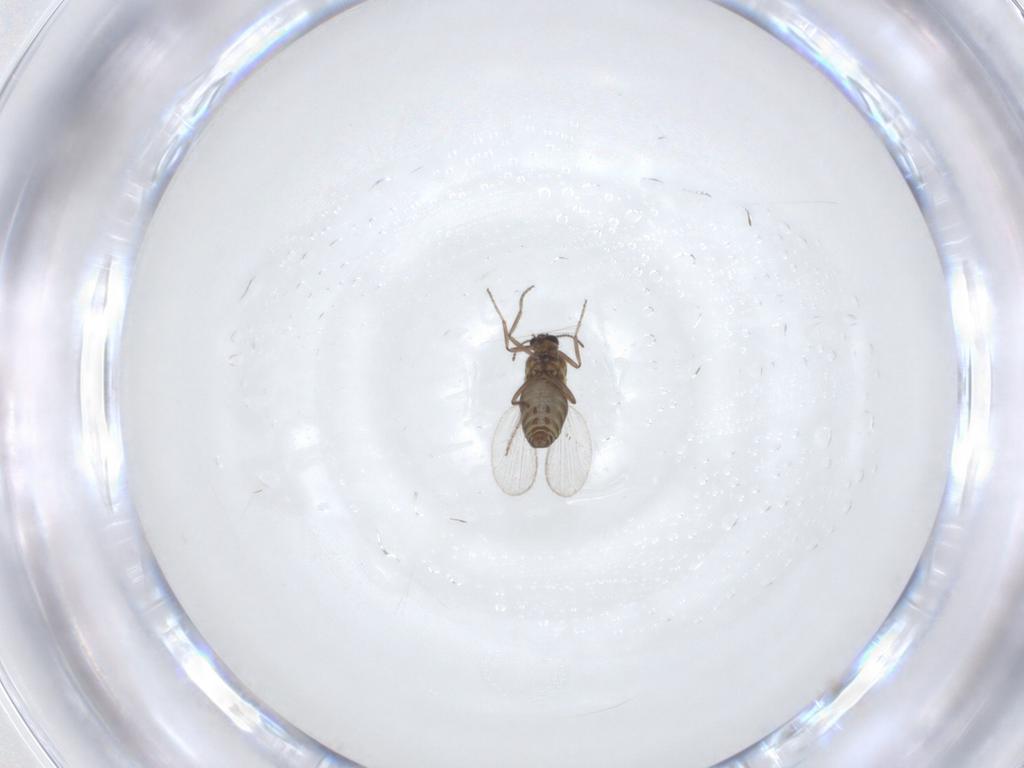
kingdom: Animalia
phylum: Arthropoda
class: Insecta
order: Diptera
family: Ceratopogonidae
